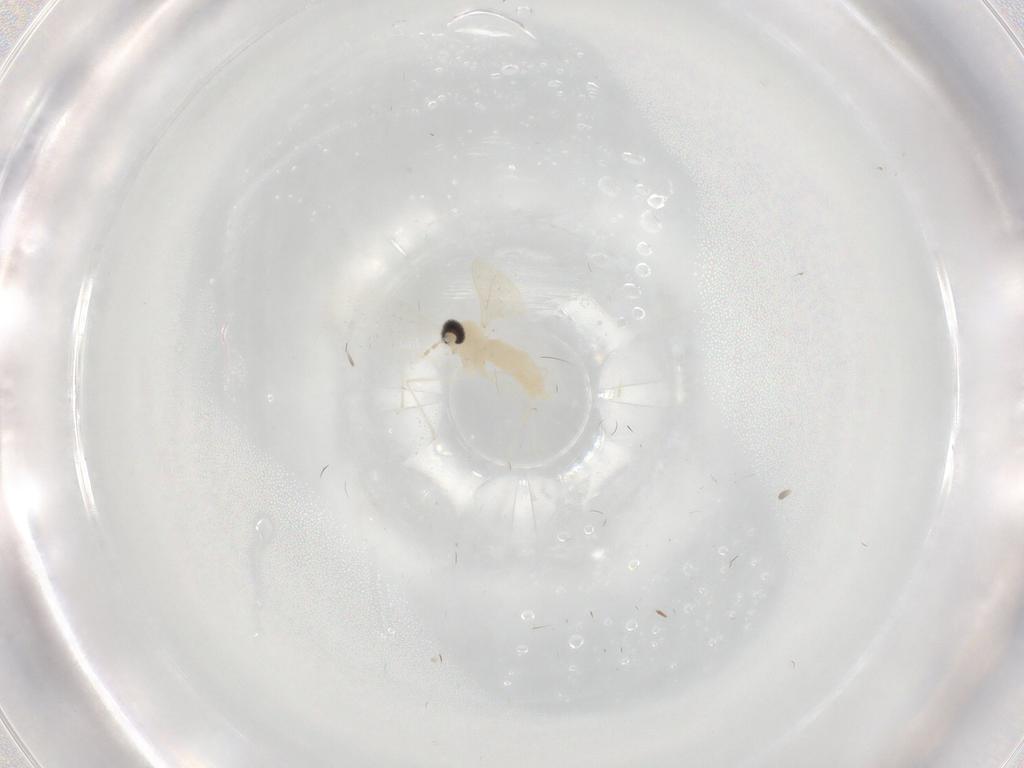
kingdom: Animalia
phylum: Arthropoda
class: Insecta
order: Diptera
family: Cecidomyiidae
